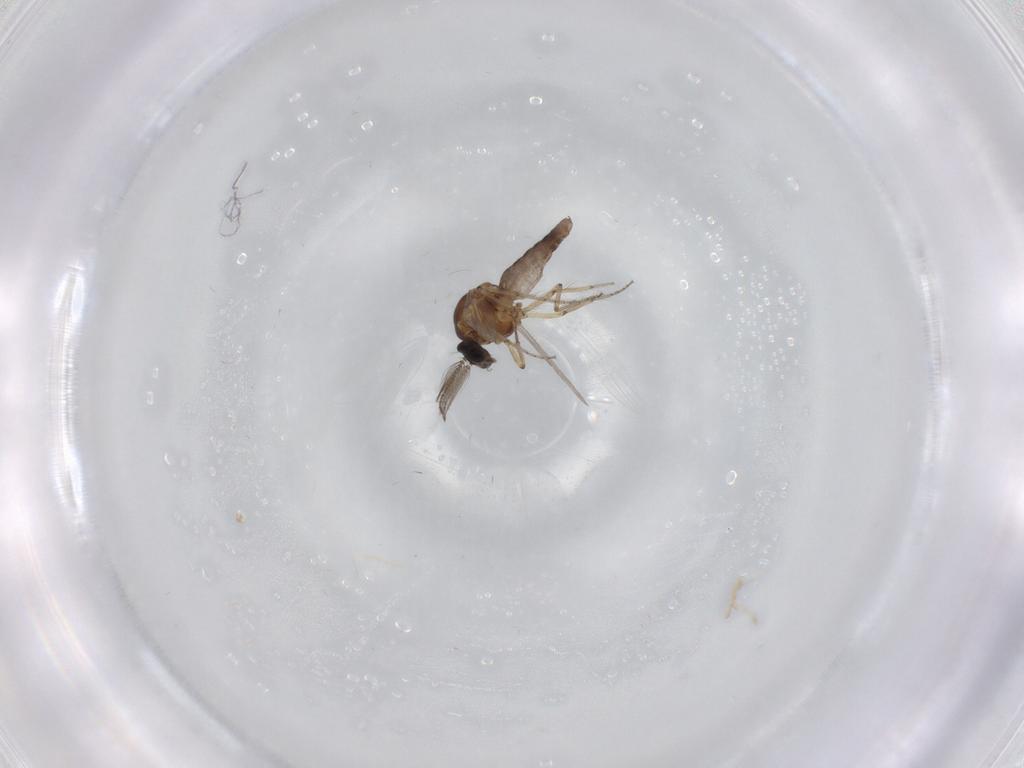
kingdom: Animalia
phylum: Arthropoda
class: Insecta
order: Diptera
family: Ceratopogonidae
